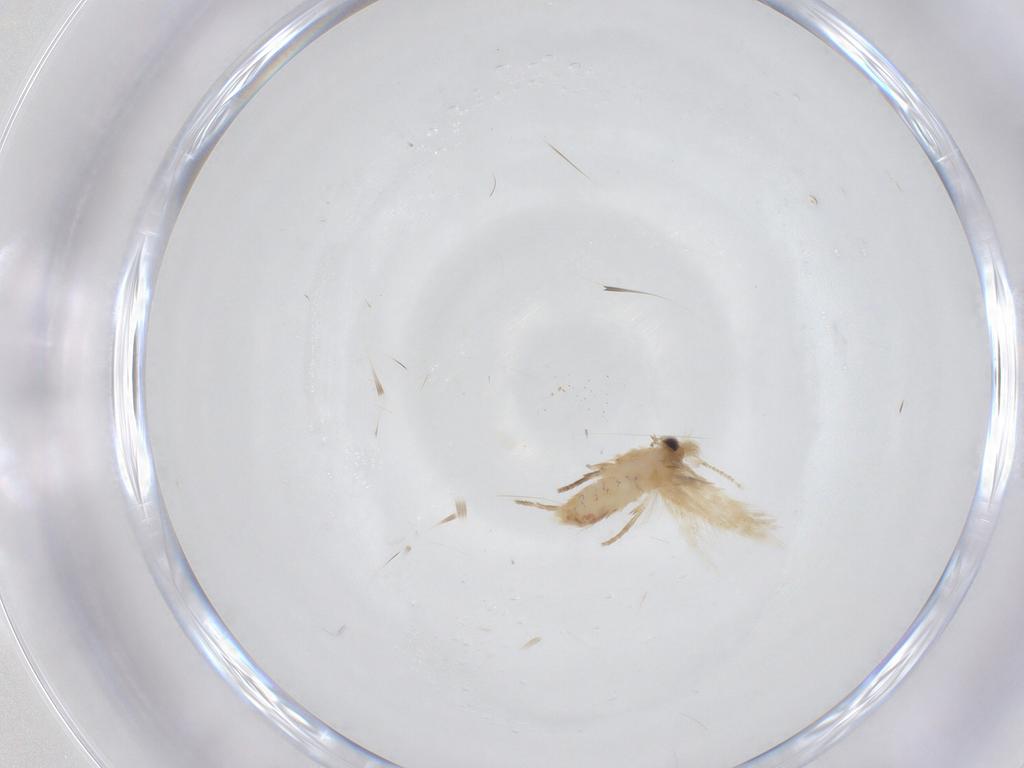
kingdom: Animalia
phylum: Arthropoda
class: Insecta
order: Lepidoptera
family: Nepticulidae
